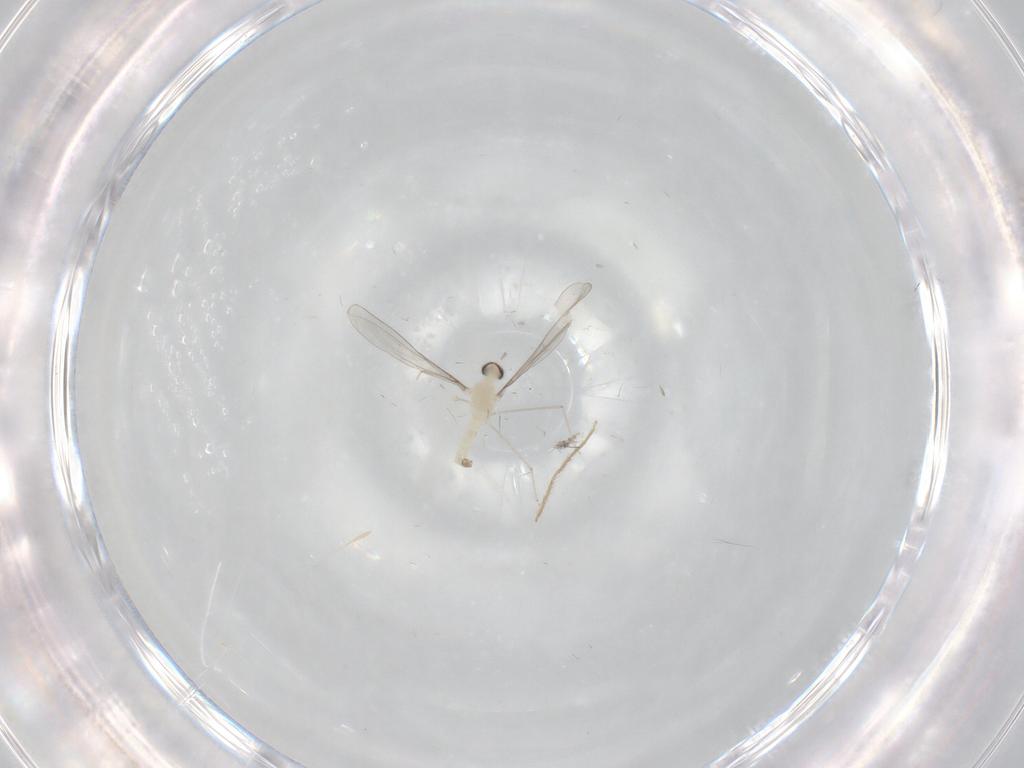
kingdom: Animalia
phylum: Arthropoda
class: Insecta
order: Diptera
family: Cecidomyiidae
